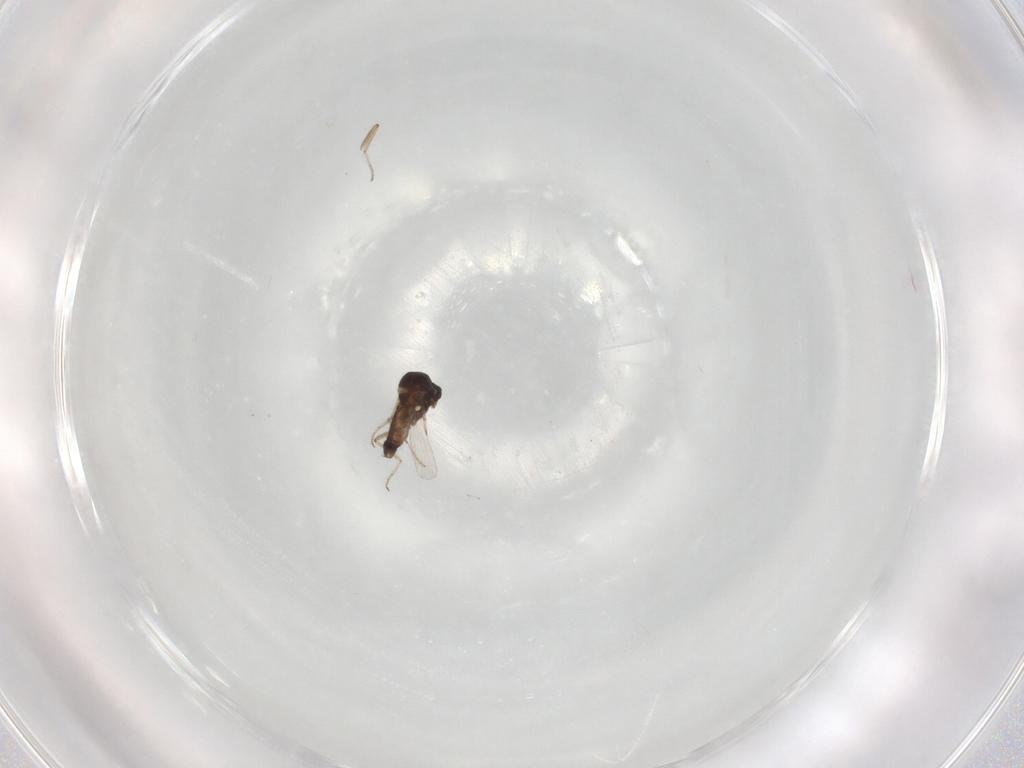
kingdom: Animalia
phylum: Arthropoda
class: Insecta
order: Diptera
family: Ceratopogonidae
